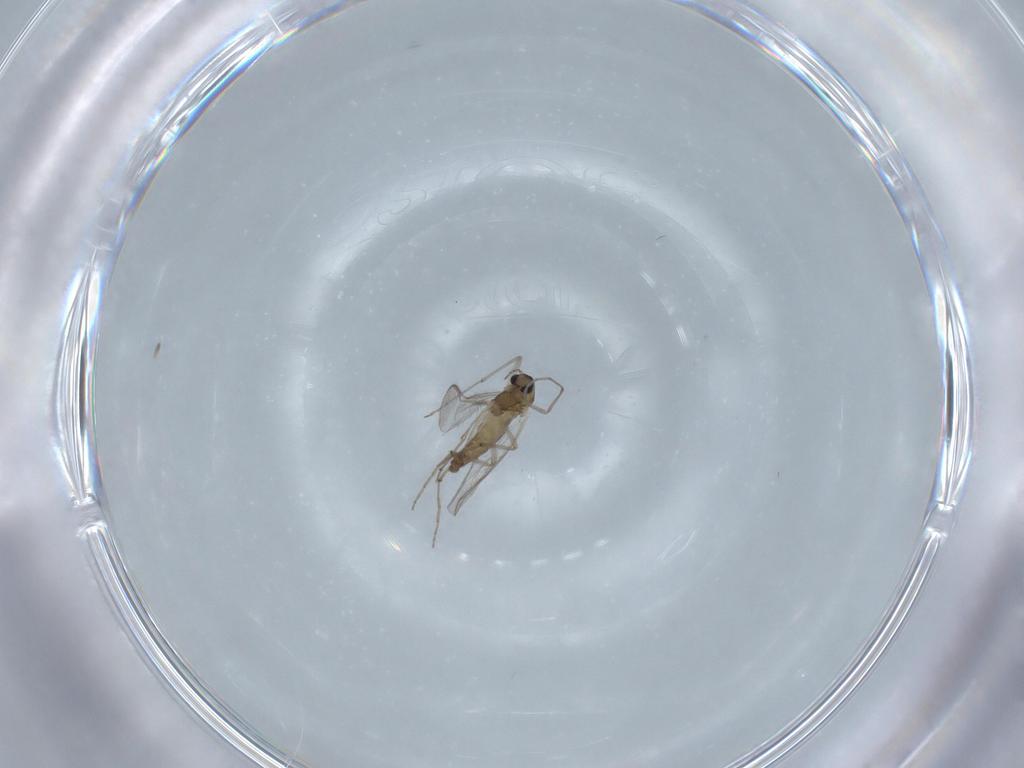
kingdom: Animalia
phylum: Arthropoda
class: Insecta
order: Diptera
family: Chironomidae
